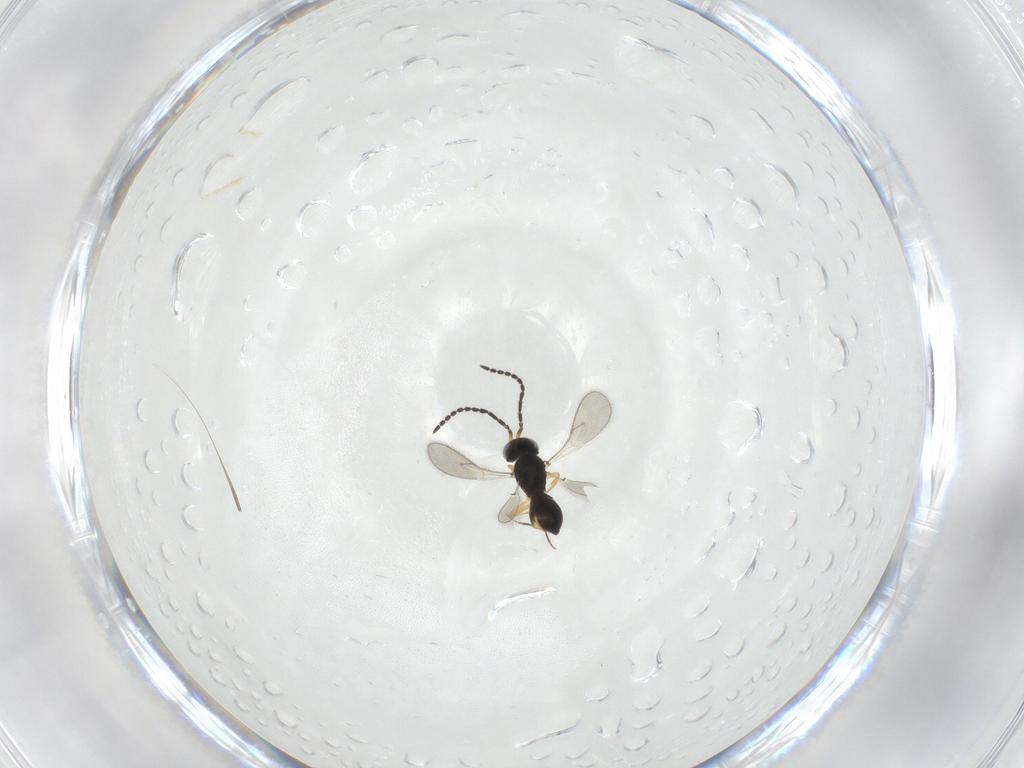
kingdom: Animalia
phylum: Arthropoda
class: Insecta
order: Hymenoptera
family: Scelionidae
